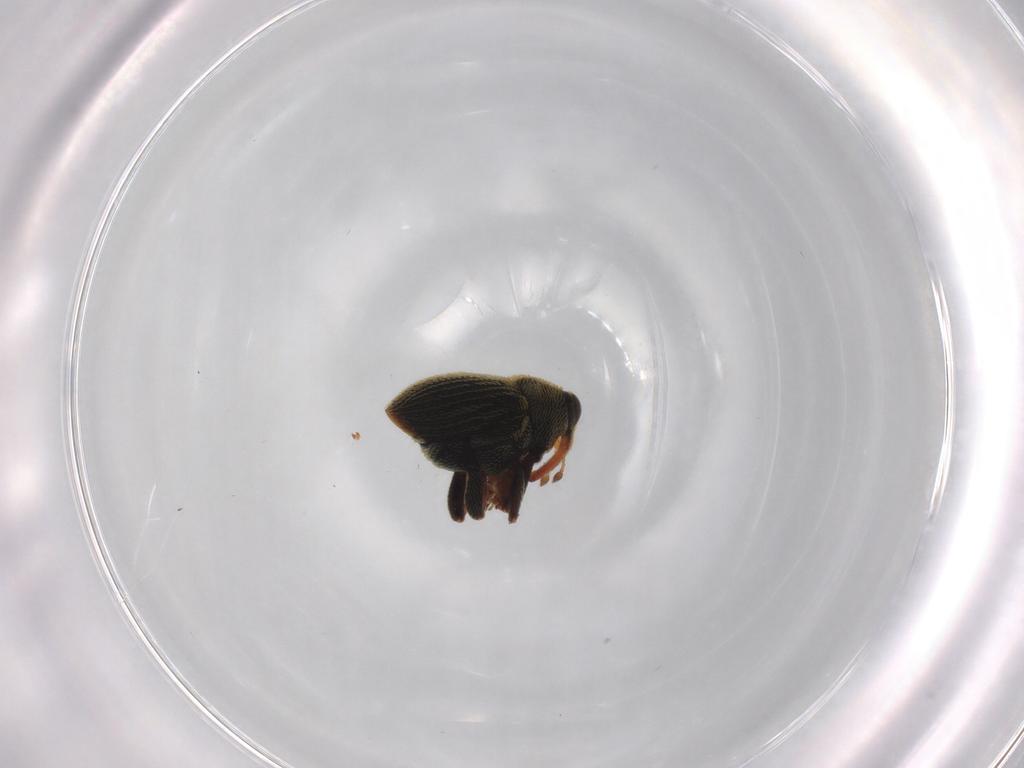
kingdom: Animalia
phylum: Arthropoda
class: Insecta
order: Coleoptera
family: Curculionidae
